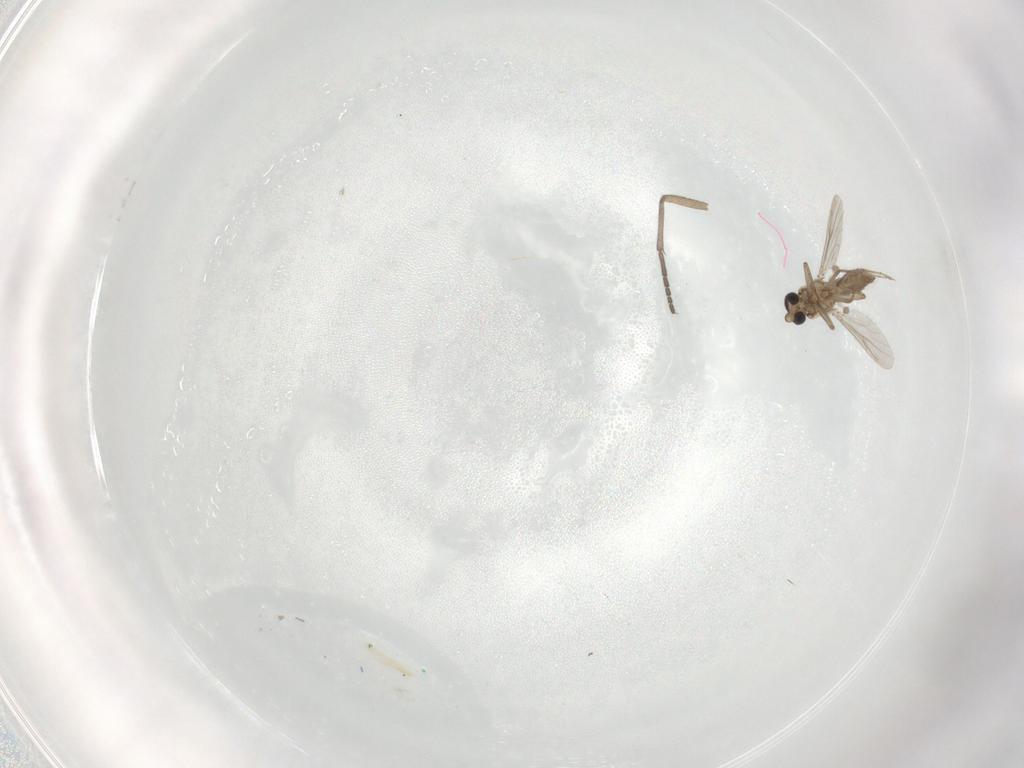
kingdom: Animalia
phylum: Arthropoda
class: Insecta
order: Diptera
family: Ceratopogonidae
